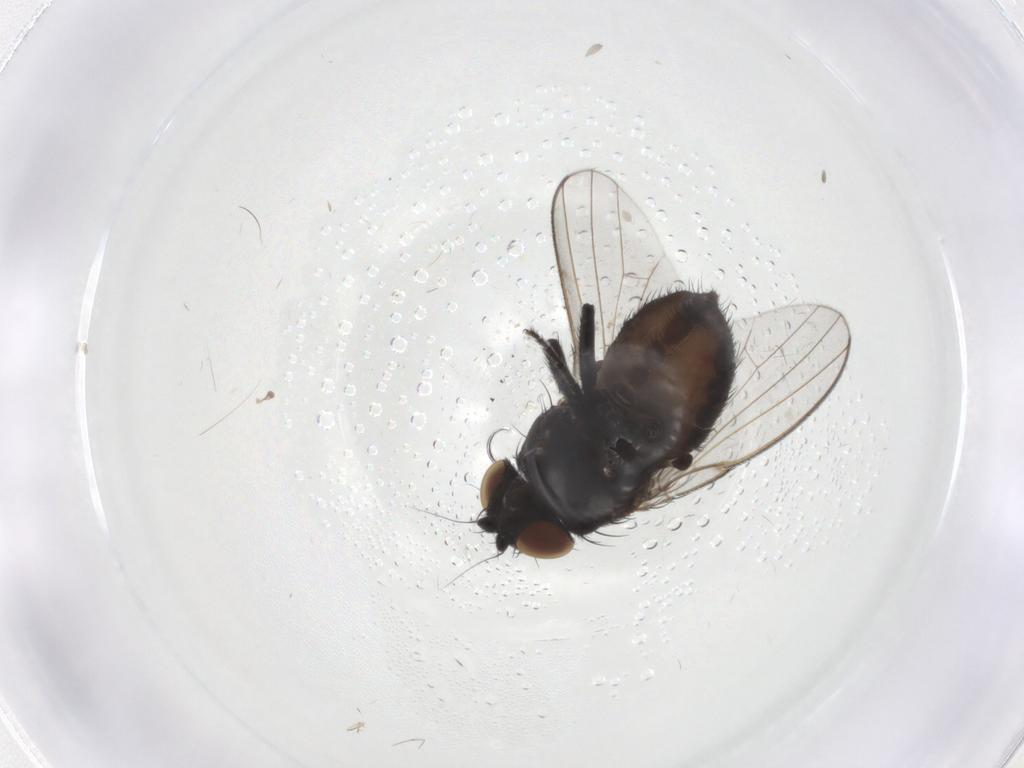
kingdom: Animalia
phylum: Arthropoda
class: Insecta
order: Diptera
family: Milichiidae
